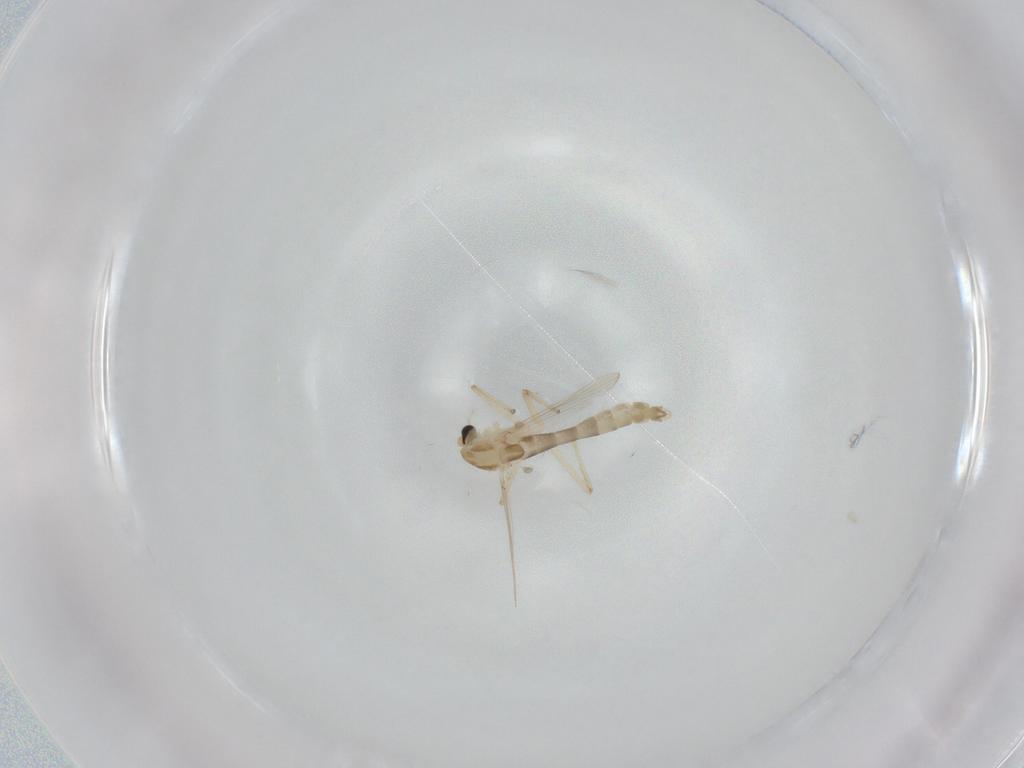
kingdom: Animalia
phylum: Arthropoda
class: Insecta
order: Diptera
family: Chironomidae
